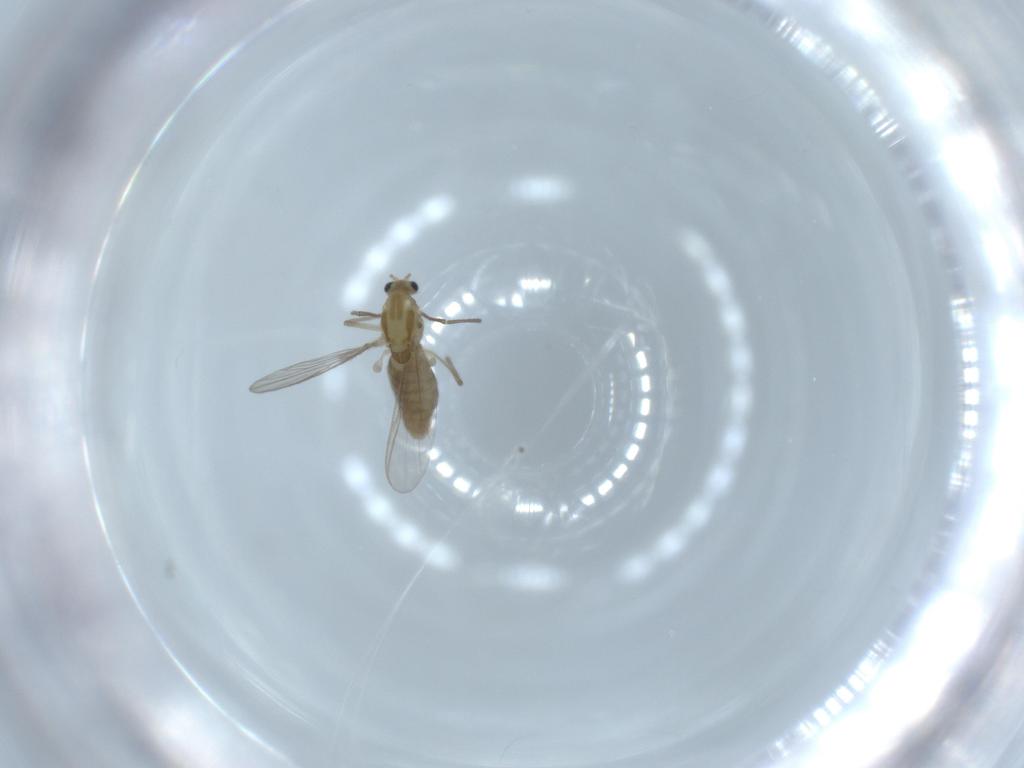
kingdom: Animalia
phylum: Arthropoda
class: Insecta
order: Diptera
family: Chironomidae
